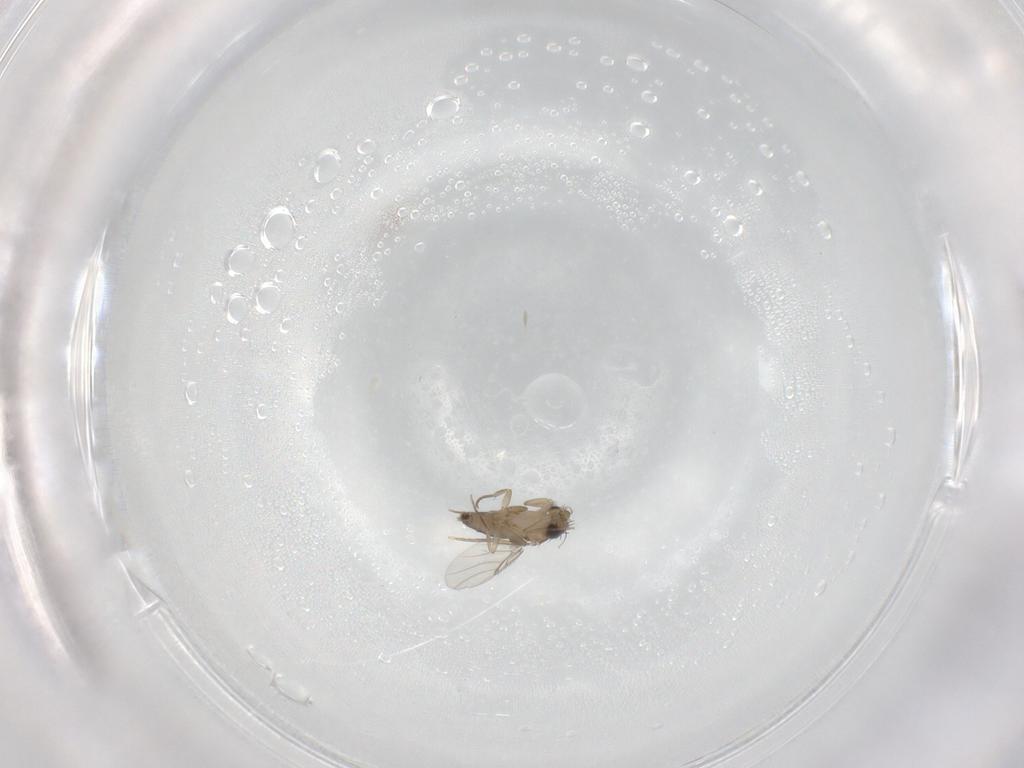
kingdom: Animalia
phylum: Arthropoda
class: Insecta
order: Diptera
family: Phoridae
